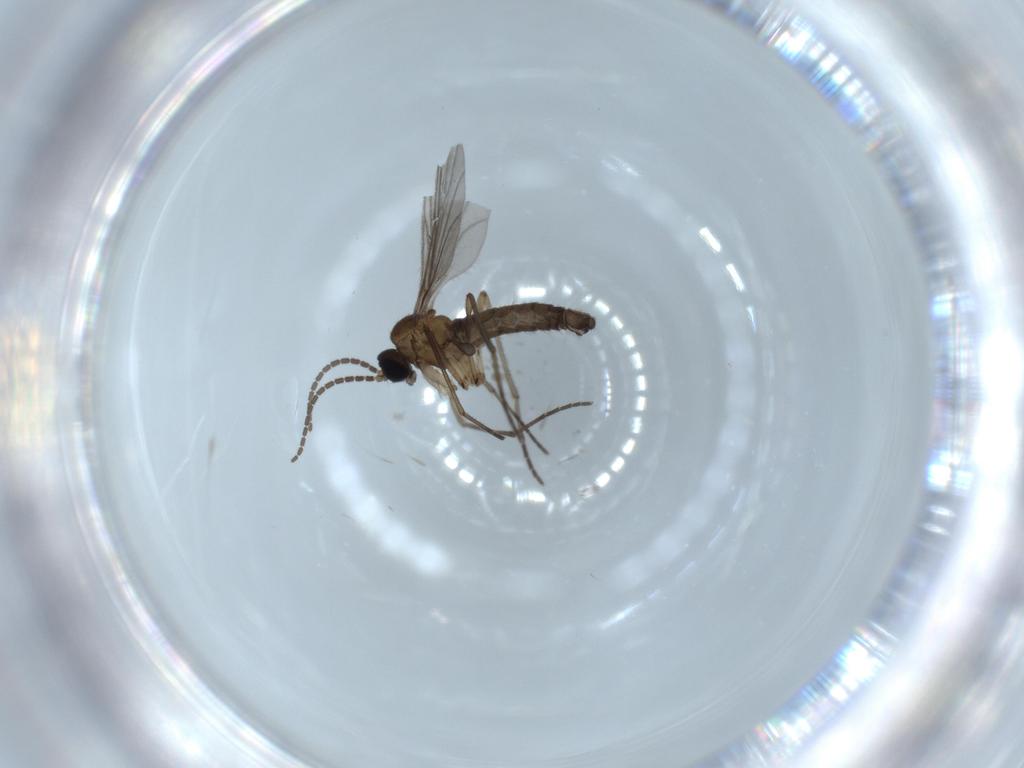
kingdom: Animalia
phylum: Arthropoda
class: Insecta
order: Diptera
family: Sciaridae
